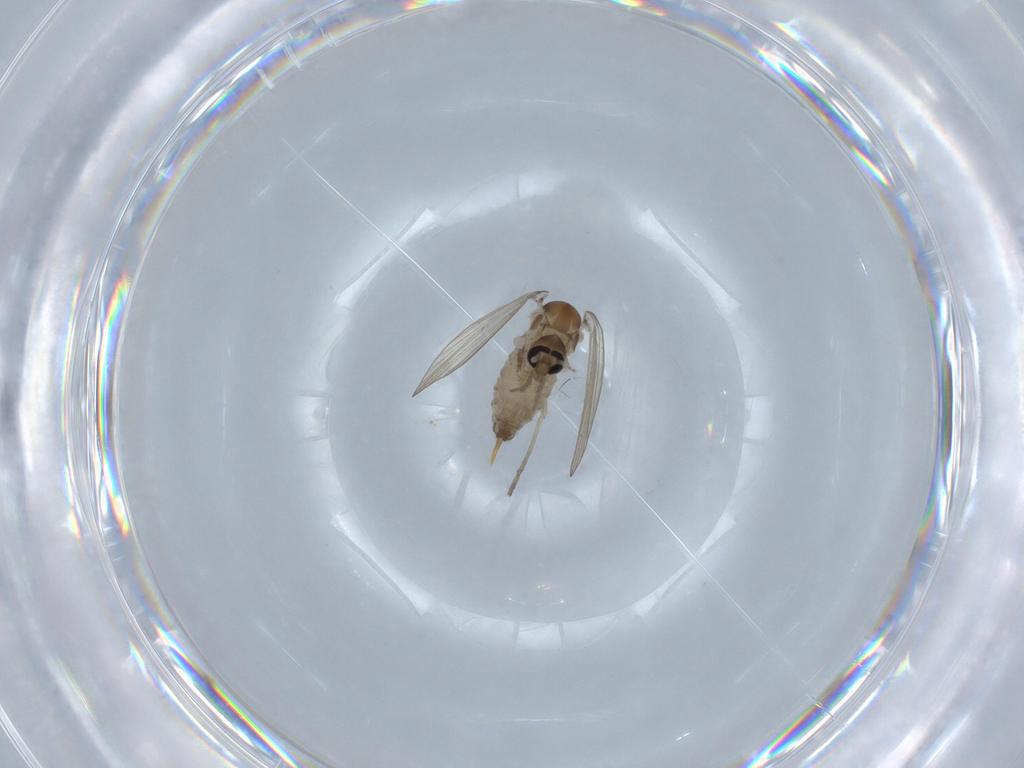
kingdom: Animalia
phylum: Arthropoda
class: Insecta
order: Diptera
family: Psychodidae
